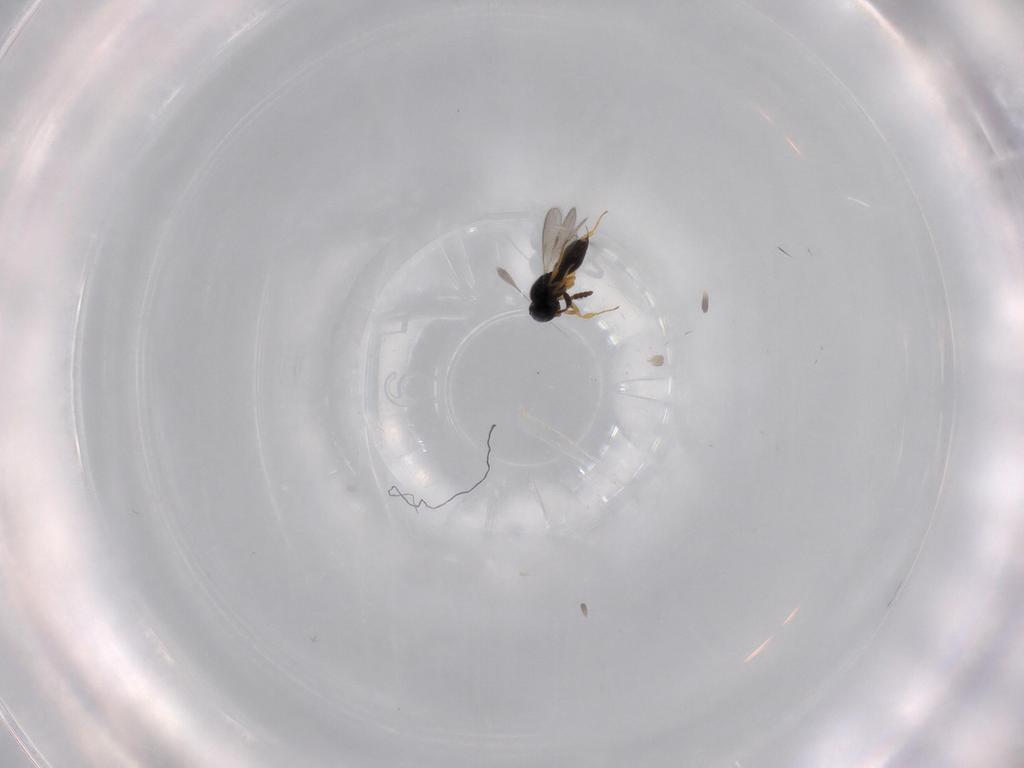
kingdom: Animalia
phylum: Arthropoda
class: Insecta
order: Hymenoptera
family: Scelionidae
